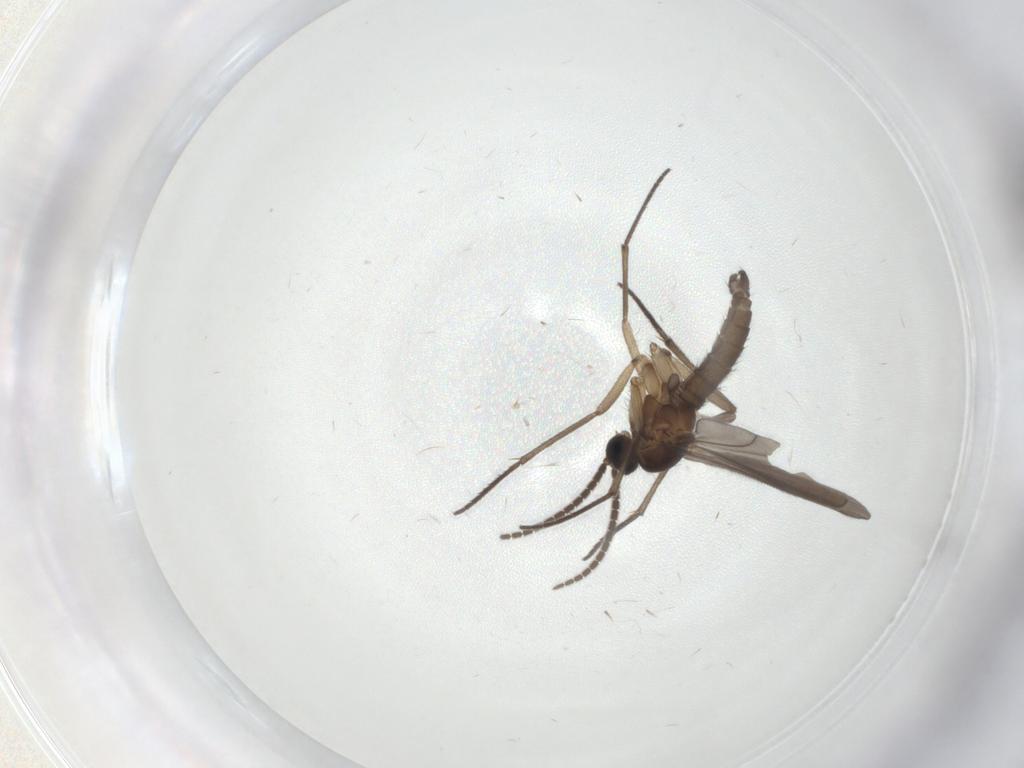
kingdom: Animalia
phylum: Arthropoda
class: Insecta
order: Diptera
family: Sciaridae
